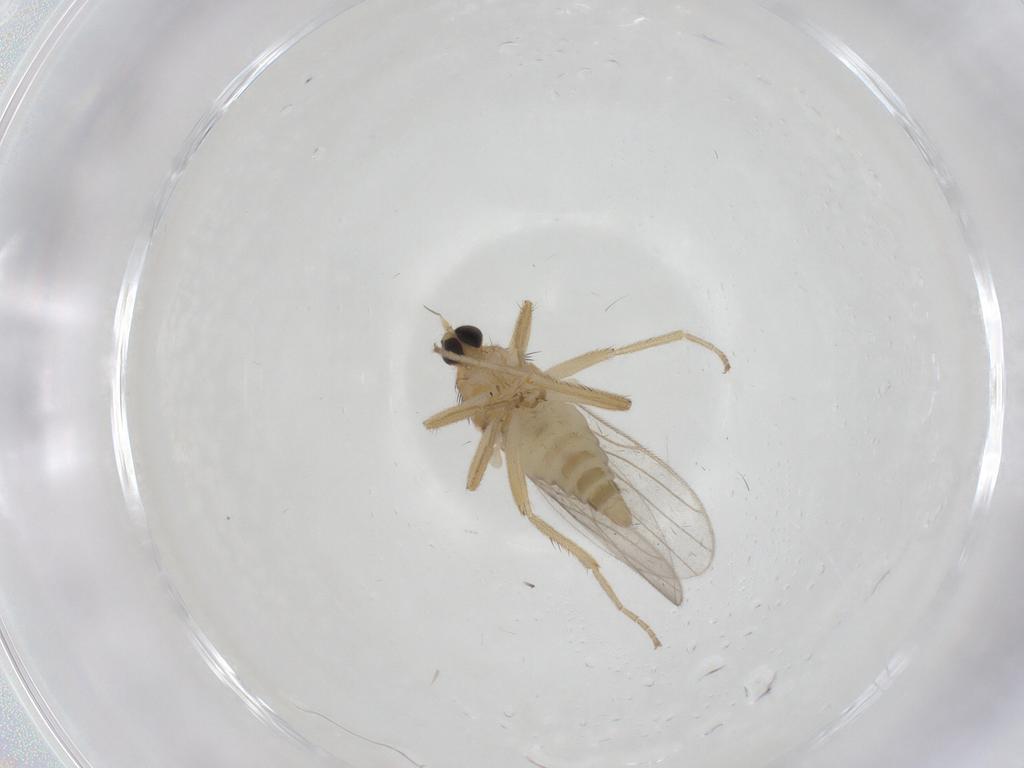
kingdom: Animalia
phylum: Arthropoda
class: Insecta
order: Diptera
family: Hybotidae
